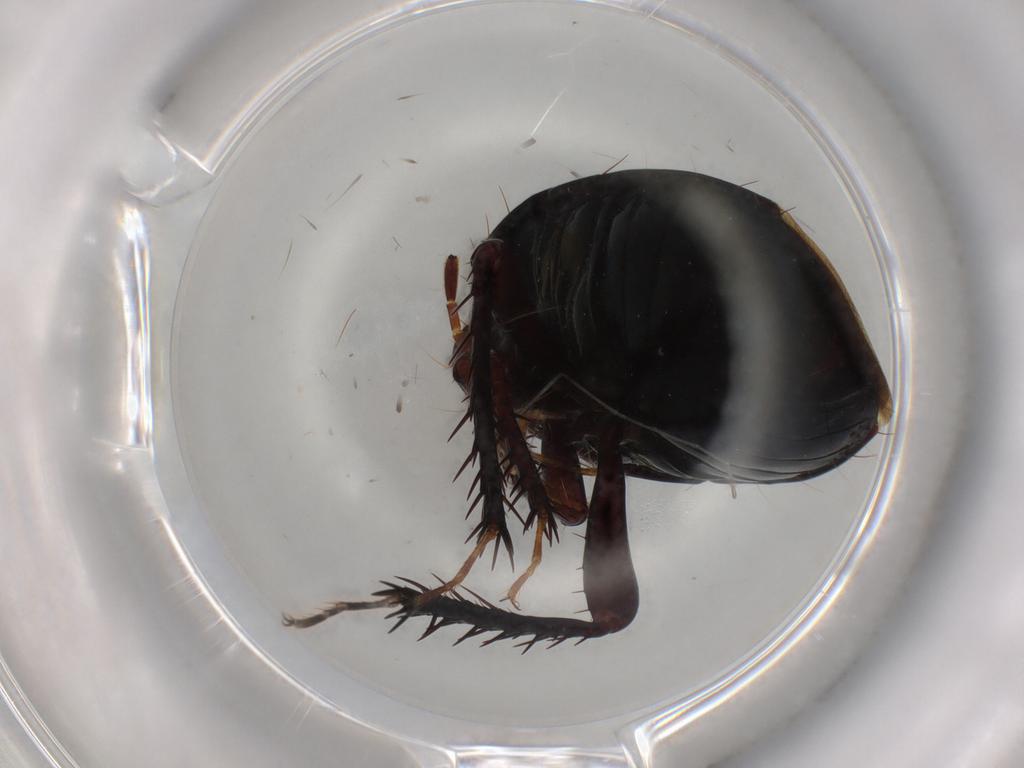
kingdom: Animalia
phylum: Arthropoda
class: Insecta
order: Hemiptera
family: Cydnidae
